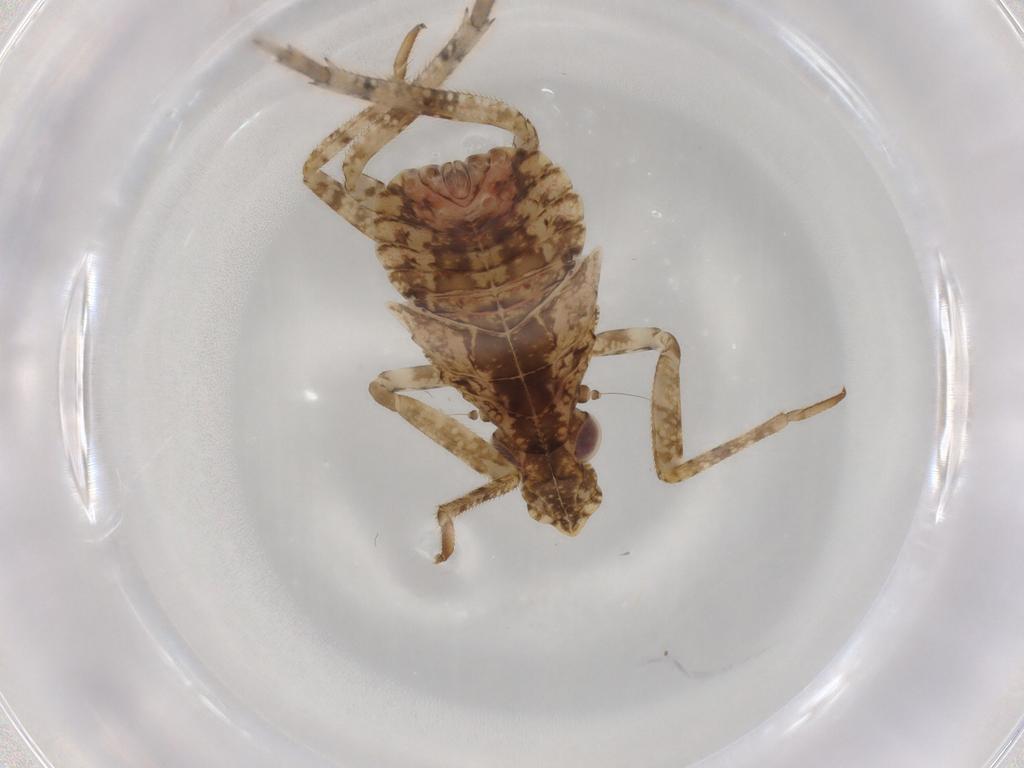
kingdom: Animalia
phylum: Arthropoda
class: Insecta
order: Hemiptera
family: Fulgoridae
